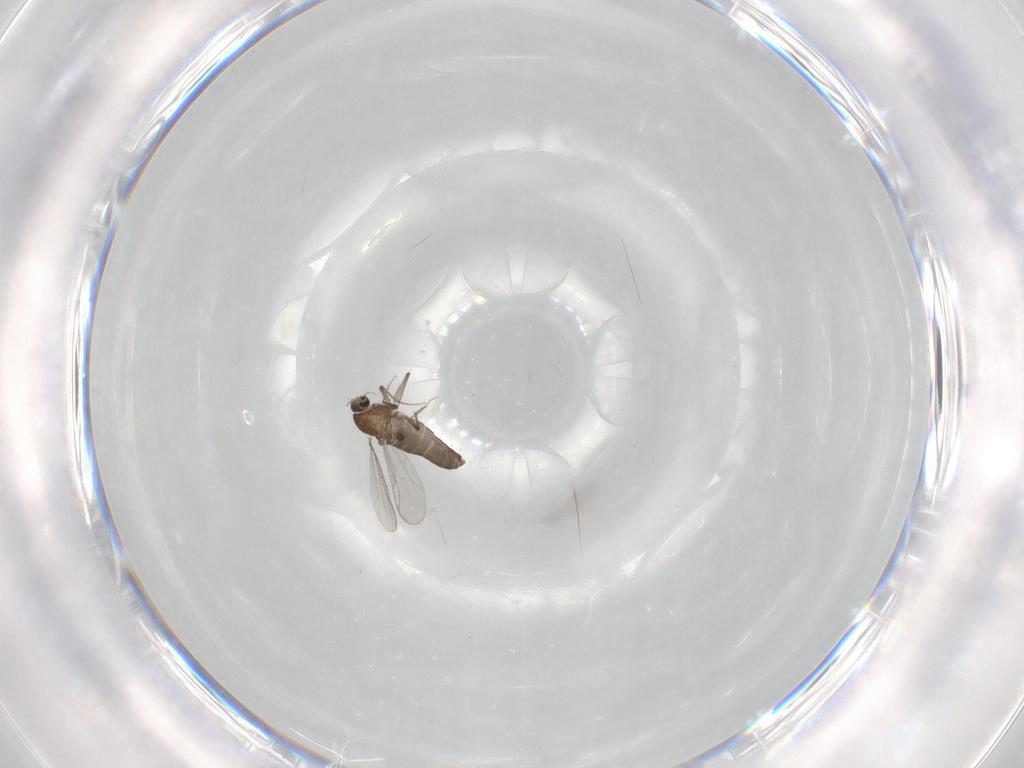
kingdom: Animalia
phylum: Arthropoda
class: Insecta
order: Diptera
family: Chironomidae
